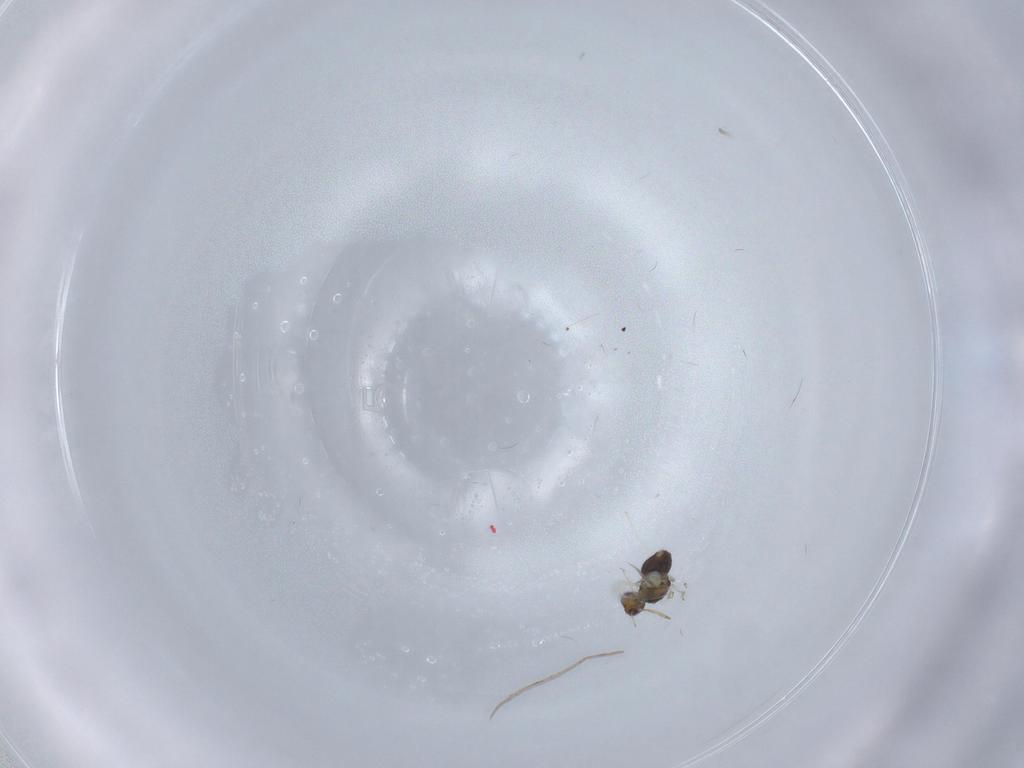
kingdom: Animalia
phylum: Arthropoda
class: Insecta
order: Hymenoptera
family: Aphelinidae
